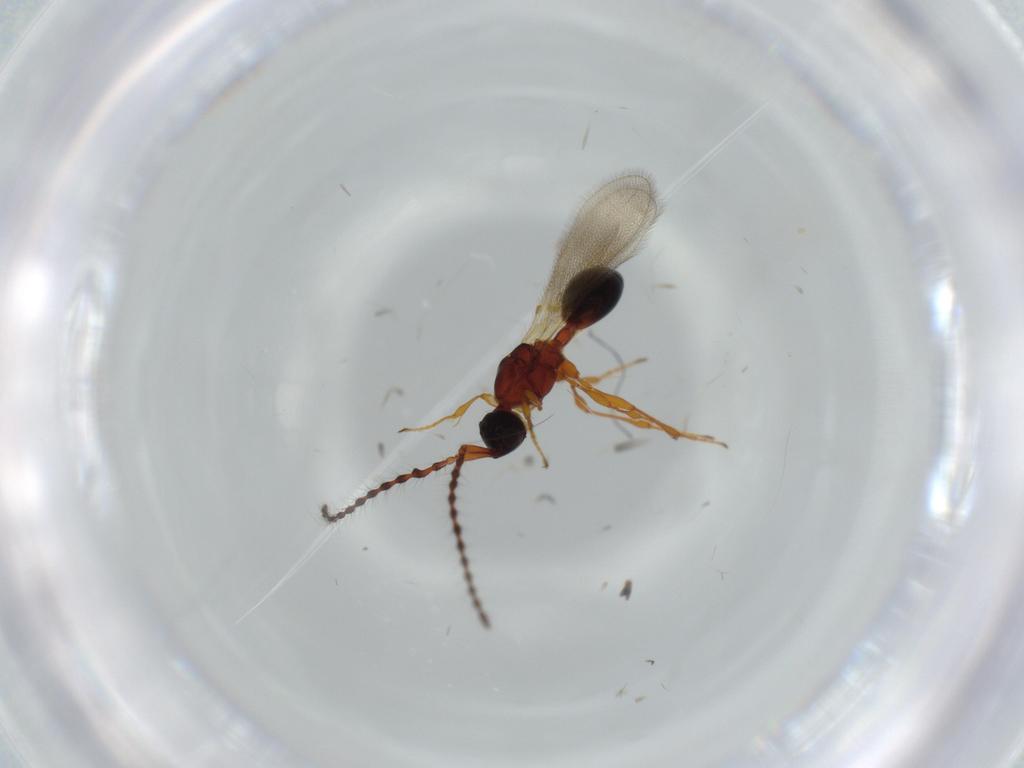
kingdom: Animalia
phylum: Arthropoda
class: Insecta
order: Hymenoptera
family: Diapriidae
